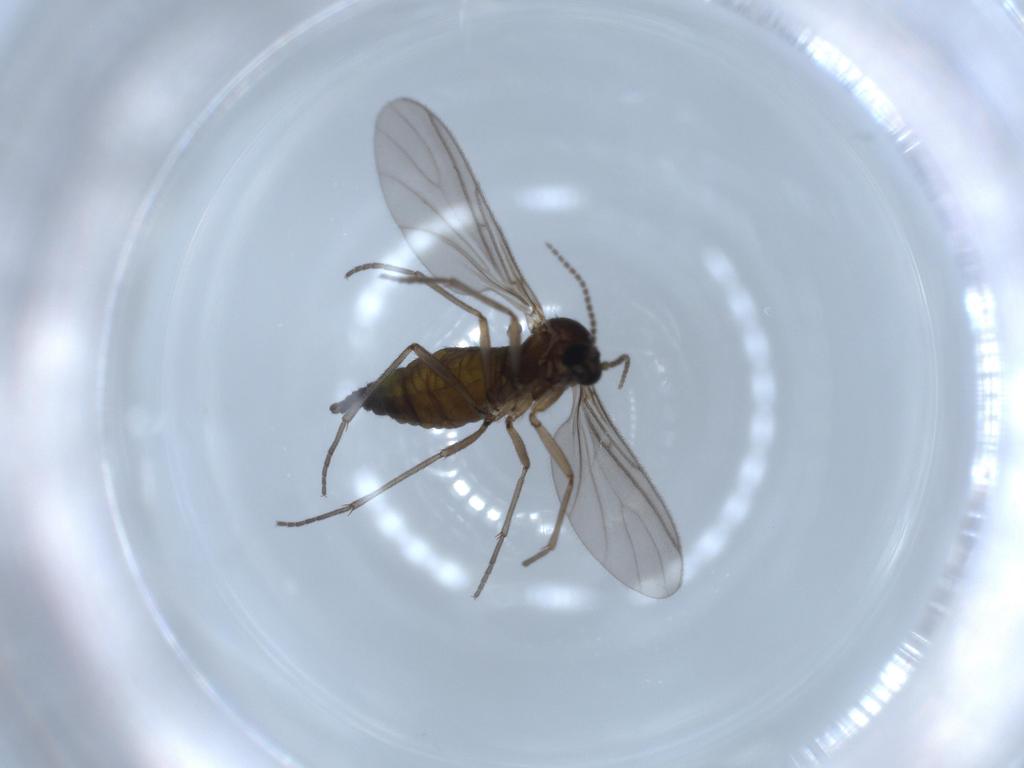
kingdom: Animalia
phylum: Arthropoda
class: Insecta
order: Diptera
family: Sciaridae
